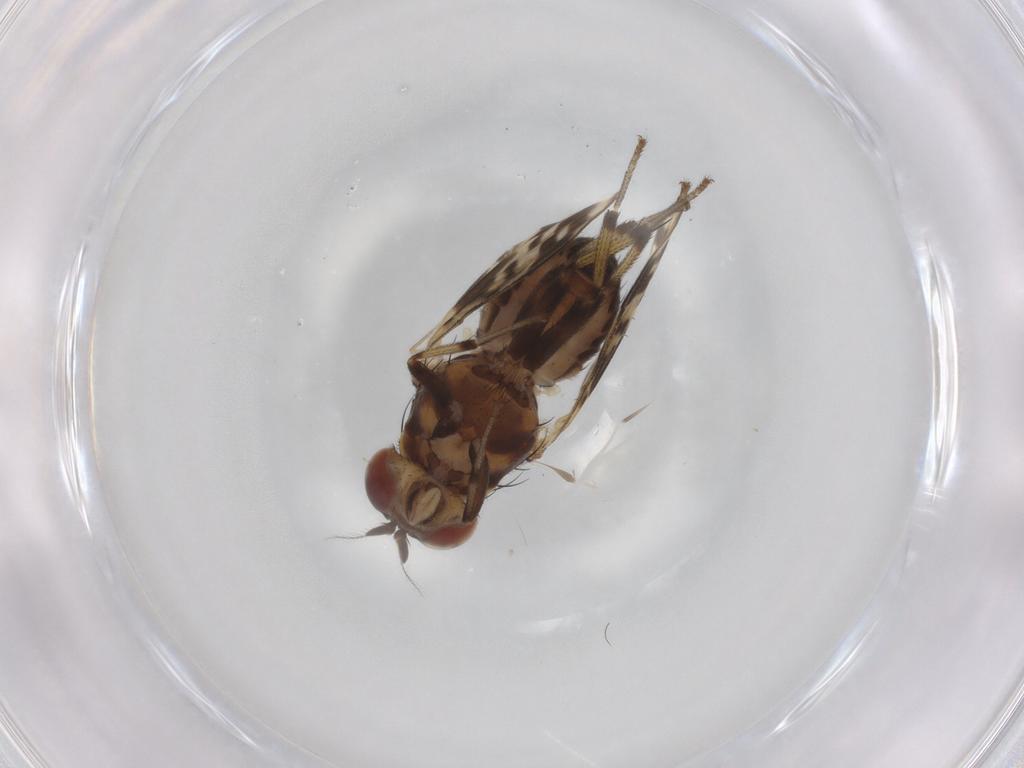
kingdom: Animalia
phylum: Arthropoda
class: Insecta
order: Diptera
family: Sciaridae
